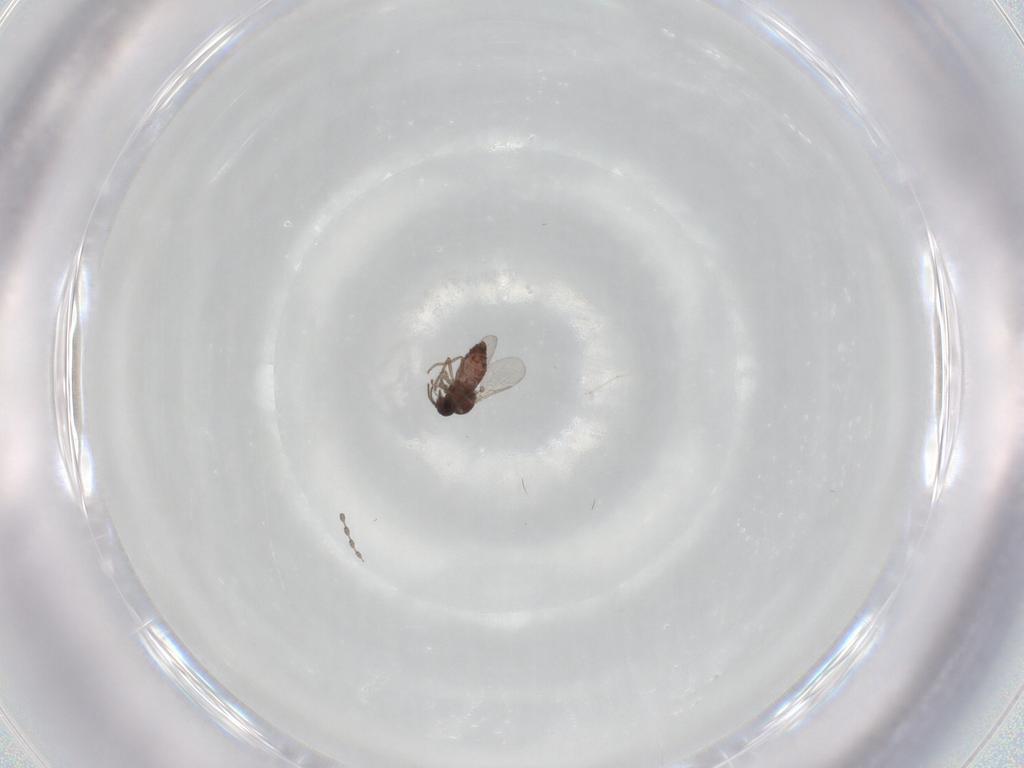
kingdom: Animalia
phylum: Arthropoda
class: Insecta
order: Diptera
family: Ceratopogonidae
